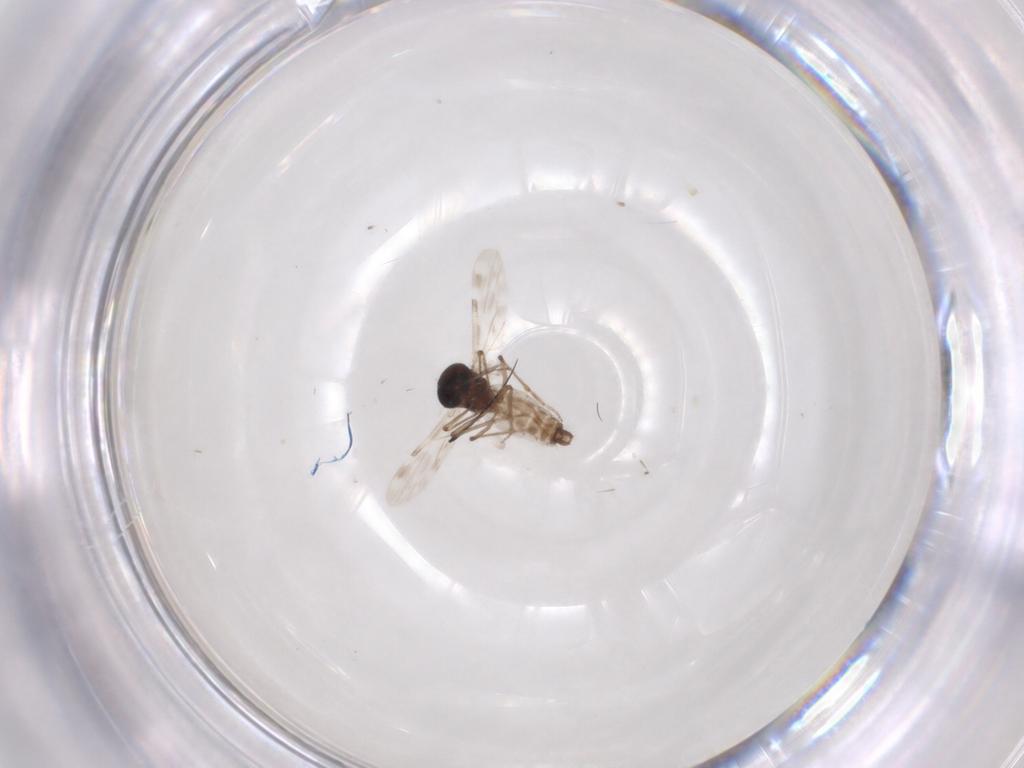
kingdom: Animalia
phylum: Arthropoda
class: Insecta
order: Diptera
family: Ceratopogonidae
